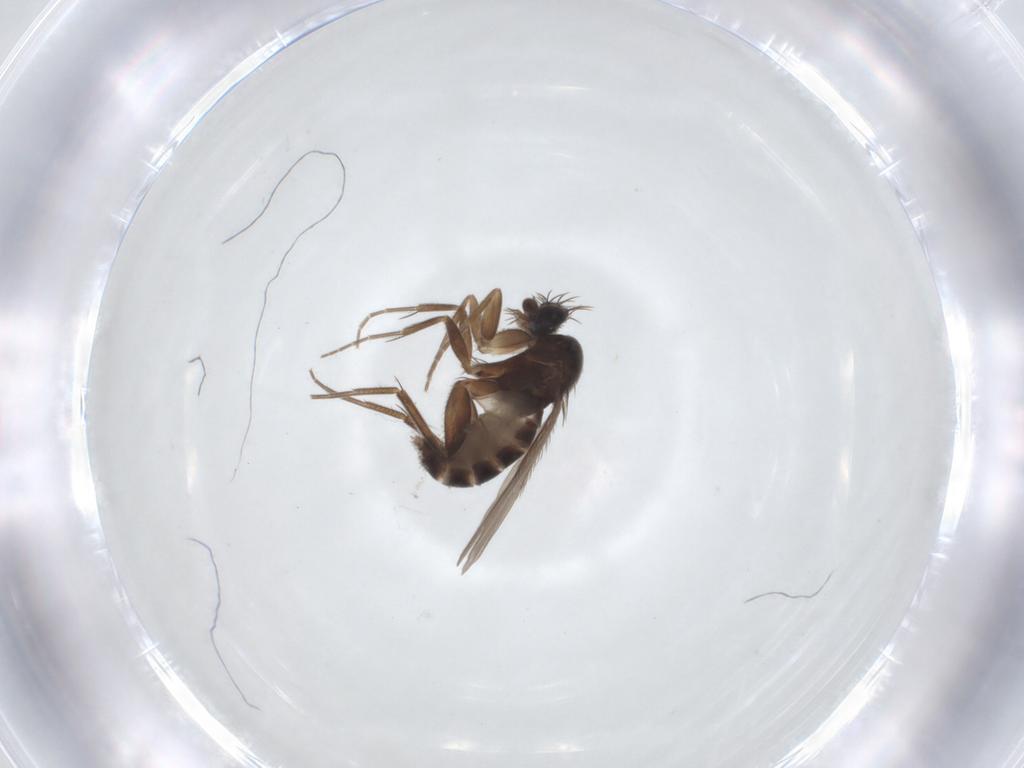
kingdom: Animalia
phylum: Arthropoda
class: Insecta
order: Diptera
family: Phoridae
